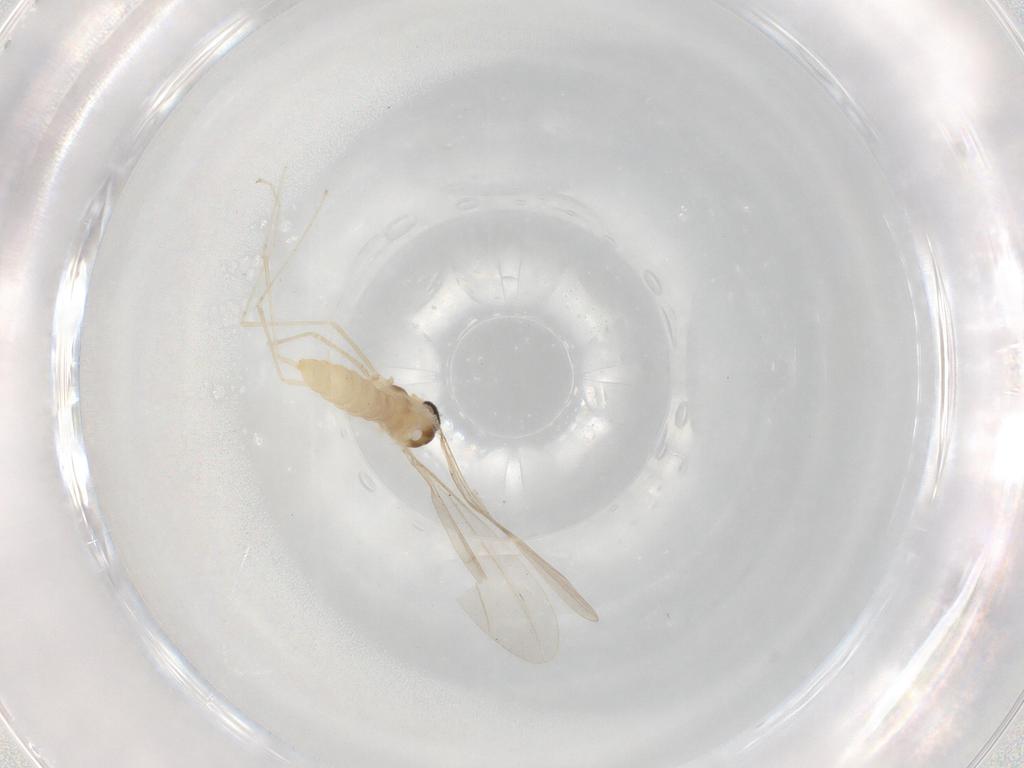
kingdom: Animalia
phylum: Arthropoda
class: Insecta
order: Diptera
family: Cecidomyiidae
